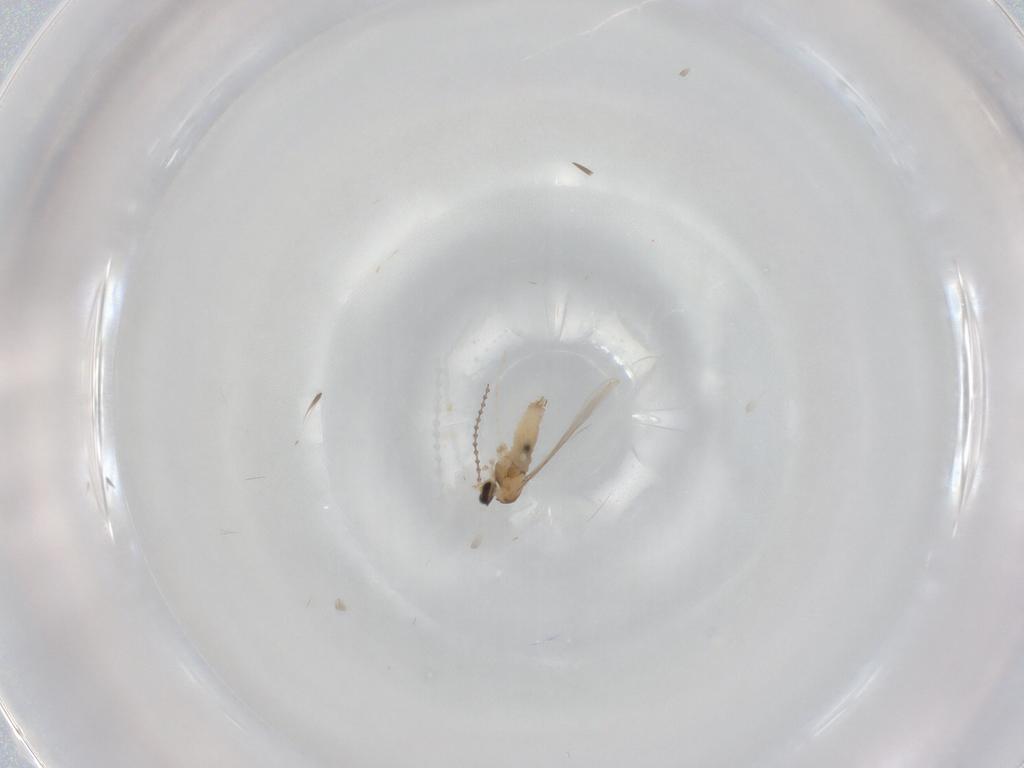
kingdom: Animalia
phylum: Arthropoda
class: Insecta
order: Diptera
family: Cecidomyiidae
